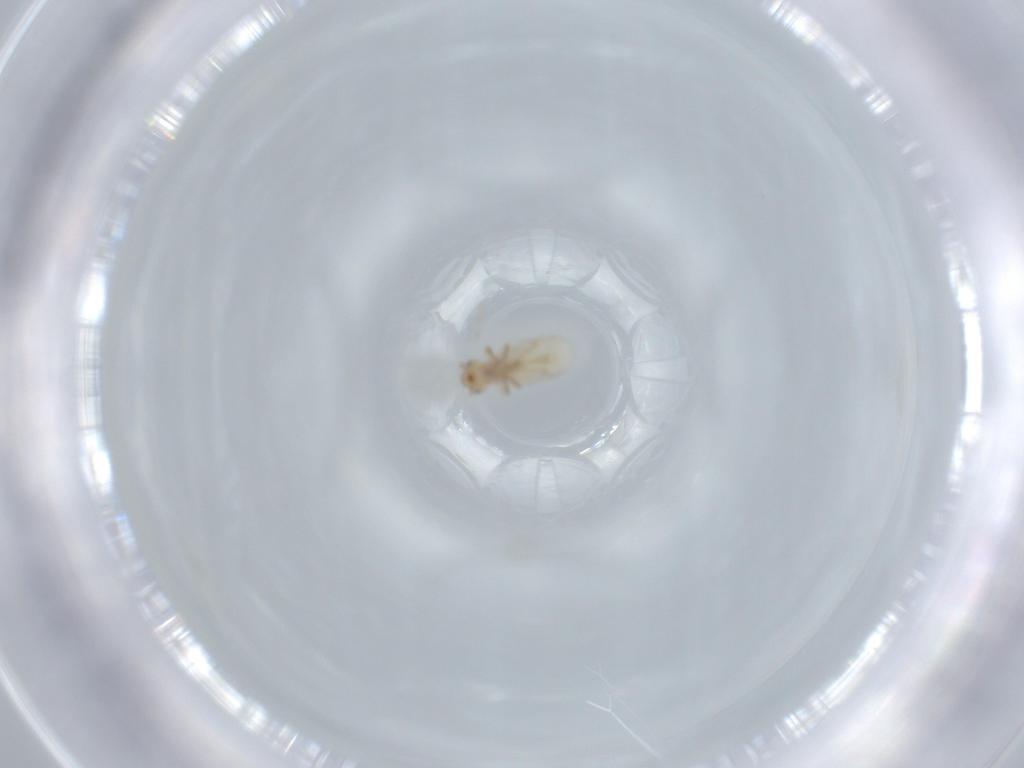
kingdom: Animalia
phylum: Arthropoda
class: Insecta
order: Psocodea
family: Liposcelididae
